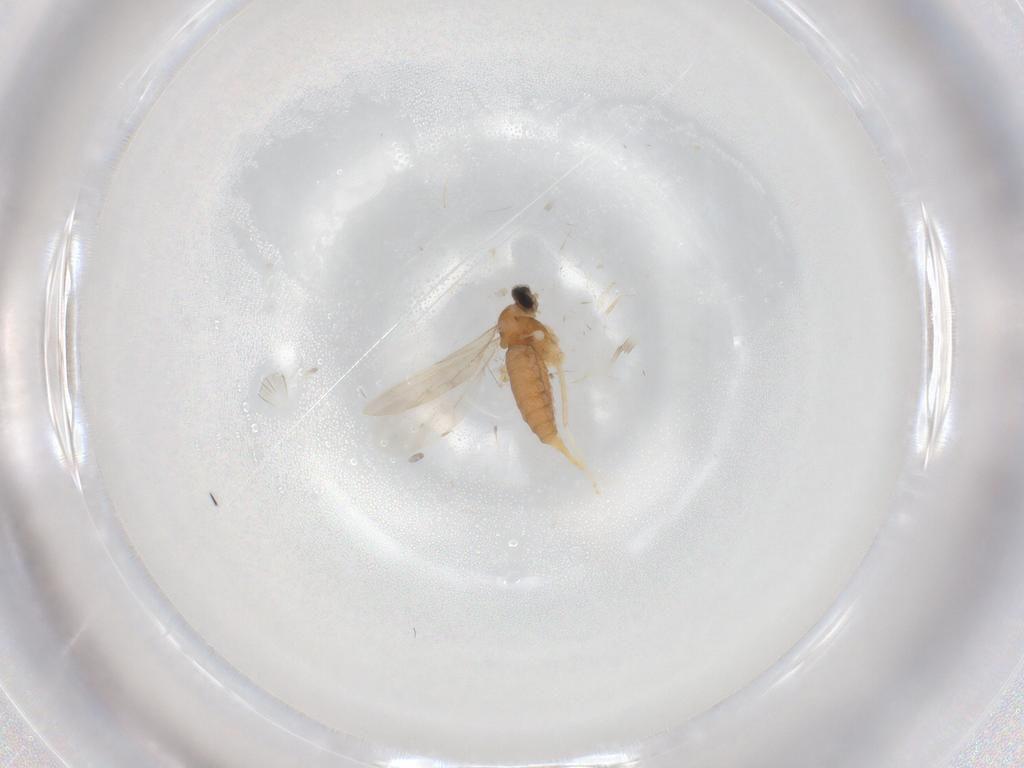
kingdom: Animalia
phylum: Arthropoda
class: Insecta
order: Diptera
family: Cecidomyiidae
